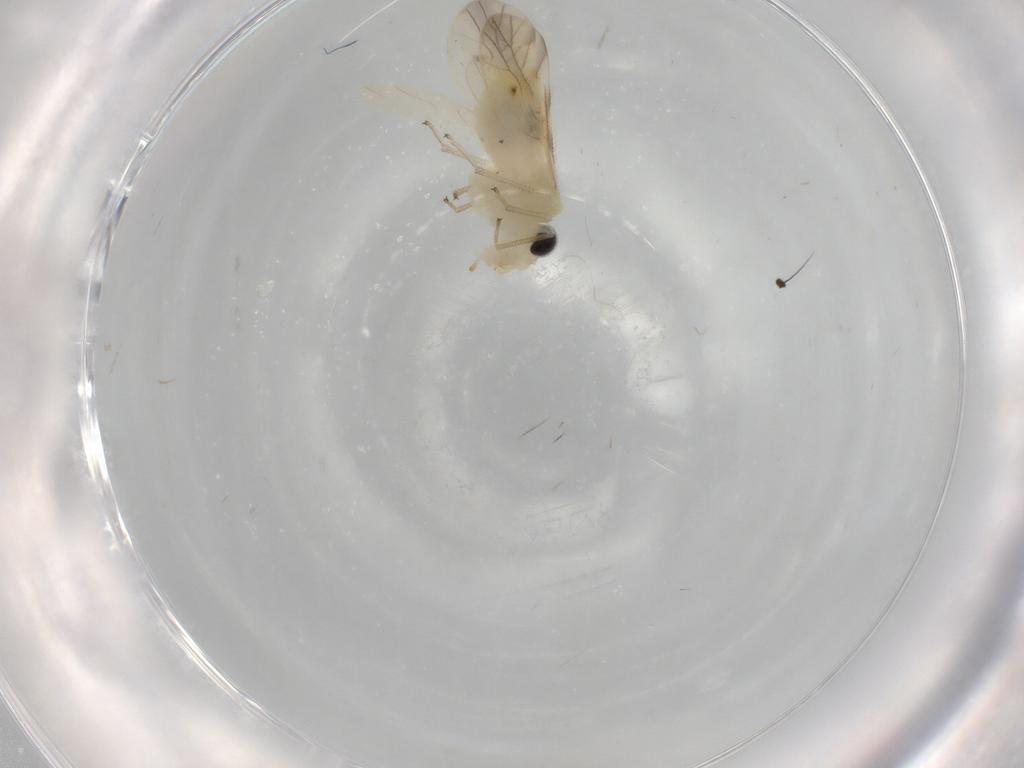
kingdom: Animalia
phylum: Arthropoda
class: Insecta
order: Psocodea
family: Caeciliusidae
